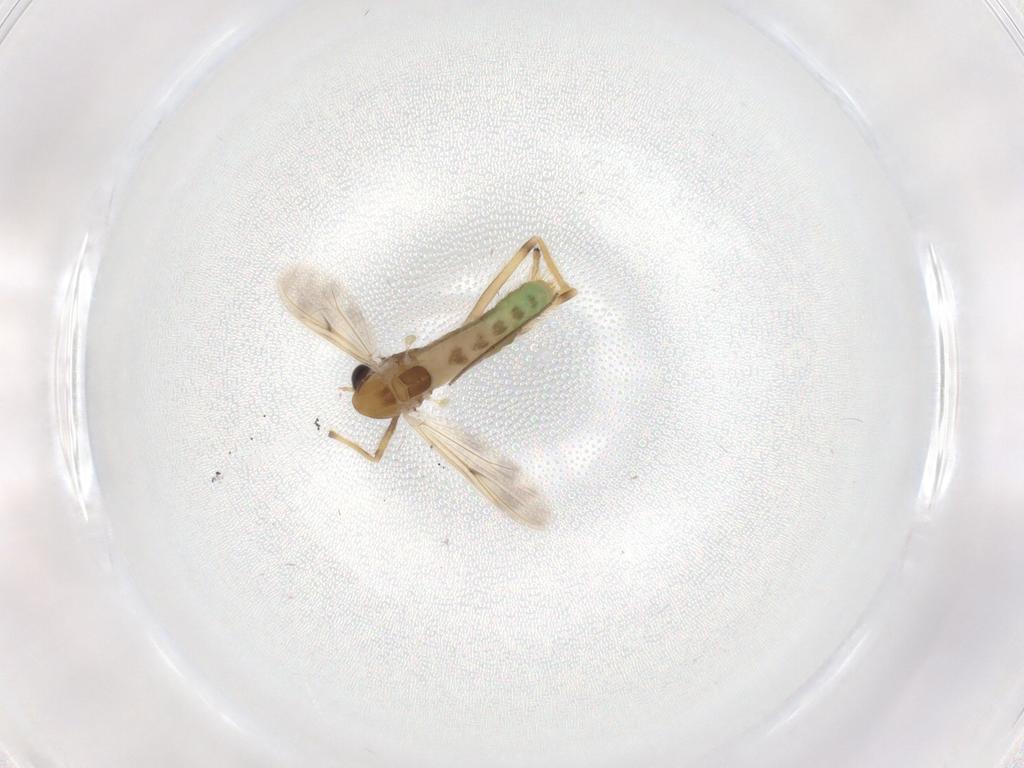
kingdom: Animalia
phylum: Arthropoda
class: Insecta
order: Diptera
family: Chironomidae
